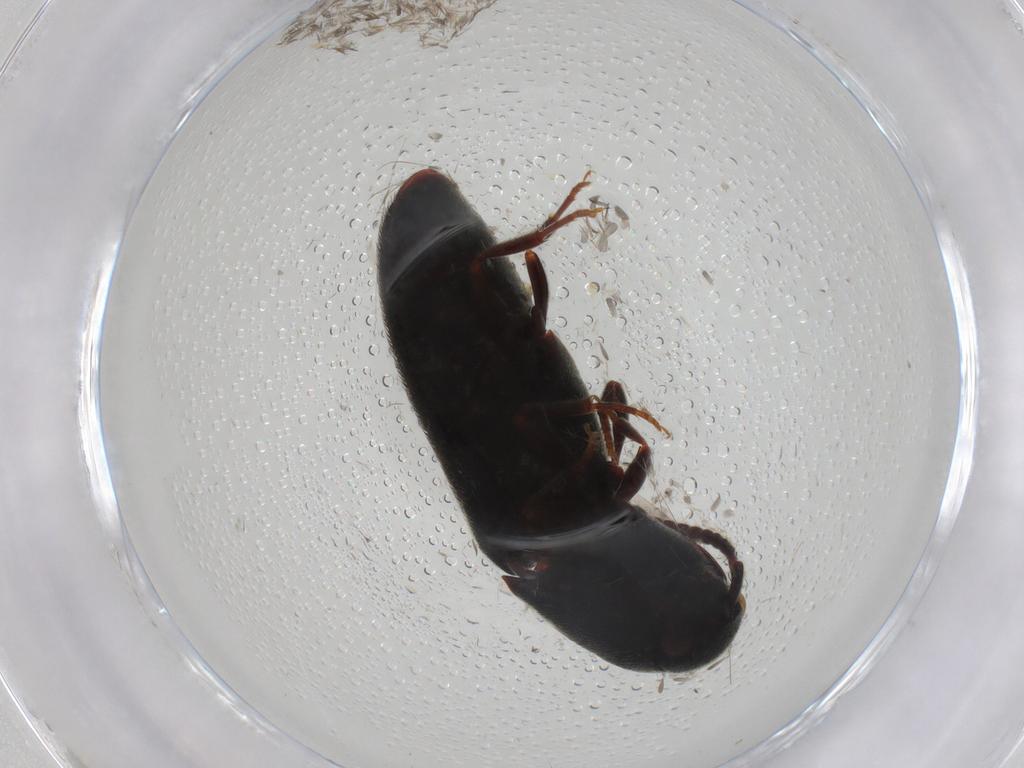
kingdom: Animalia
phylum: Arthropoda
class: Insecta
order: Coleoptera
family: Eucnemidae
